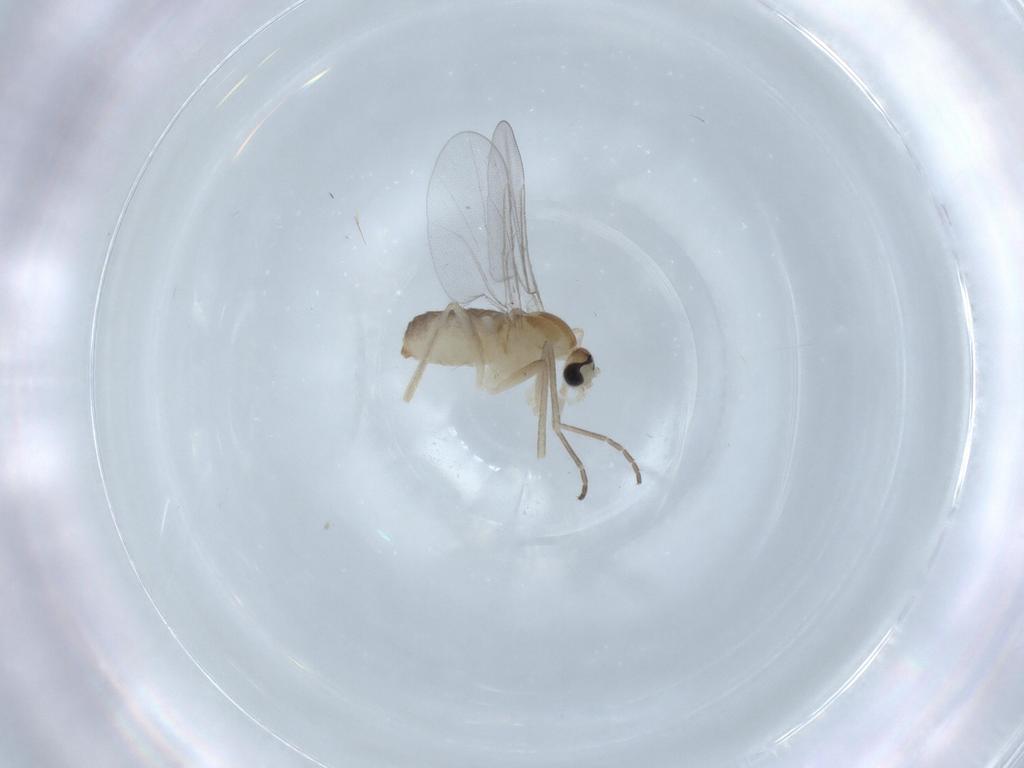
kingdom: Animalia
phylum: Arthropoda
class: Insecta
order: Diptera
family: Cecidomyiidae
